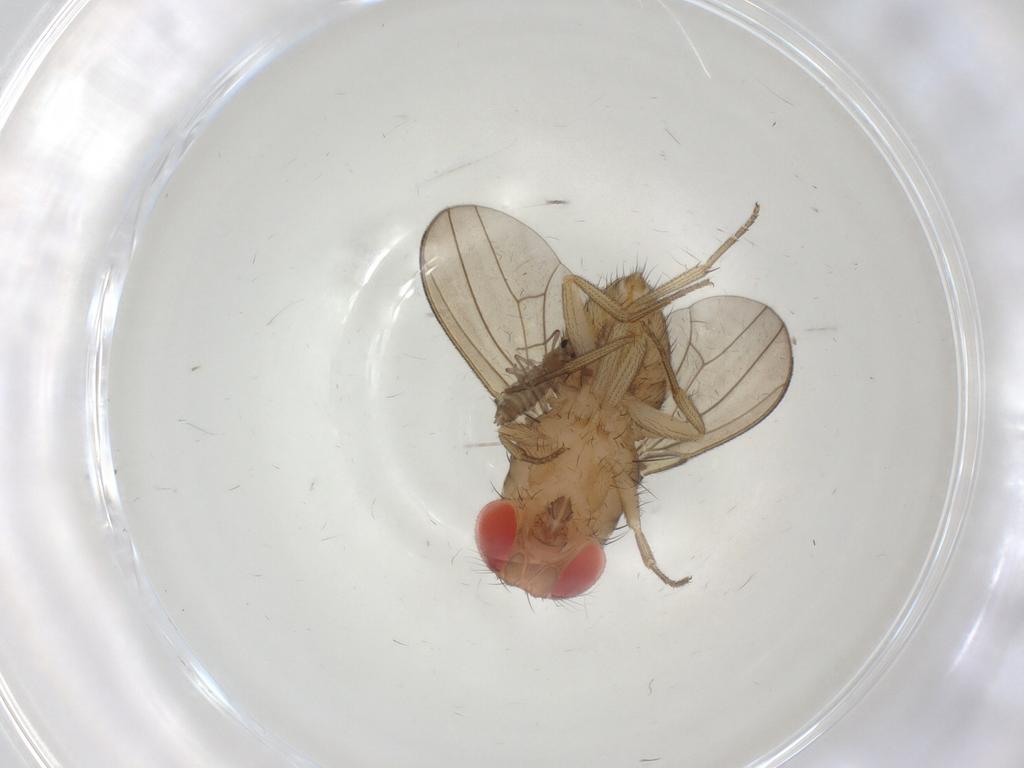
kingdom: Animalia
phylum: Arthropoda
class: Insecta
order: Diptera
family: Drosophilidae
